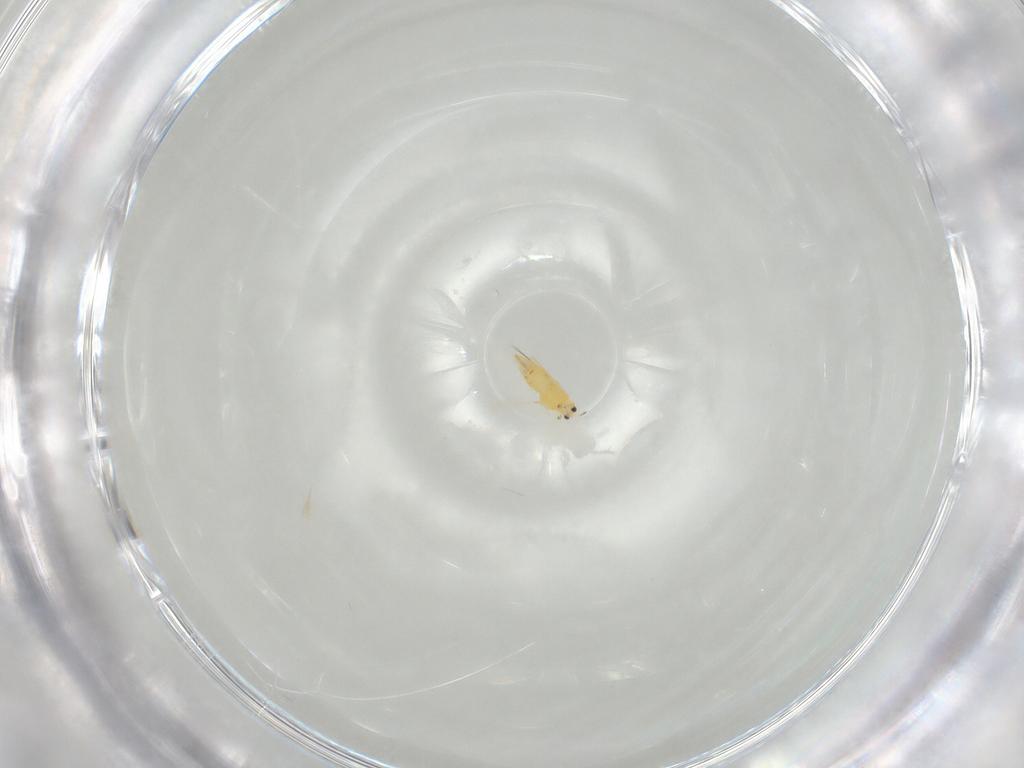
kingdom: Animalia
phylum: Arthropoda
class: Insecta
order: Thysanoptera
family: Thripidae
